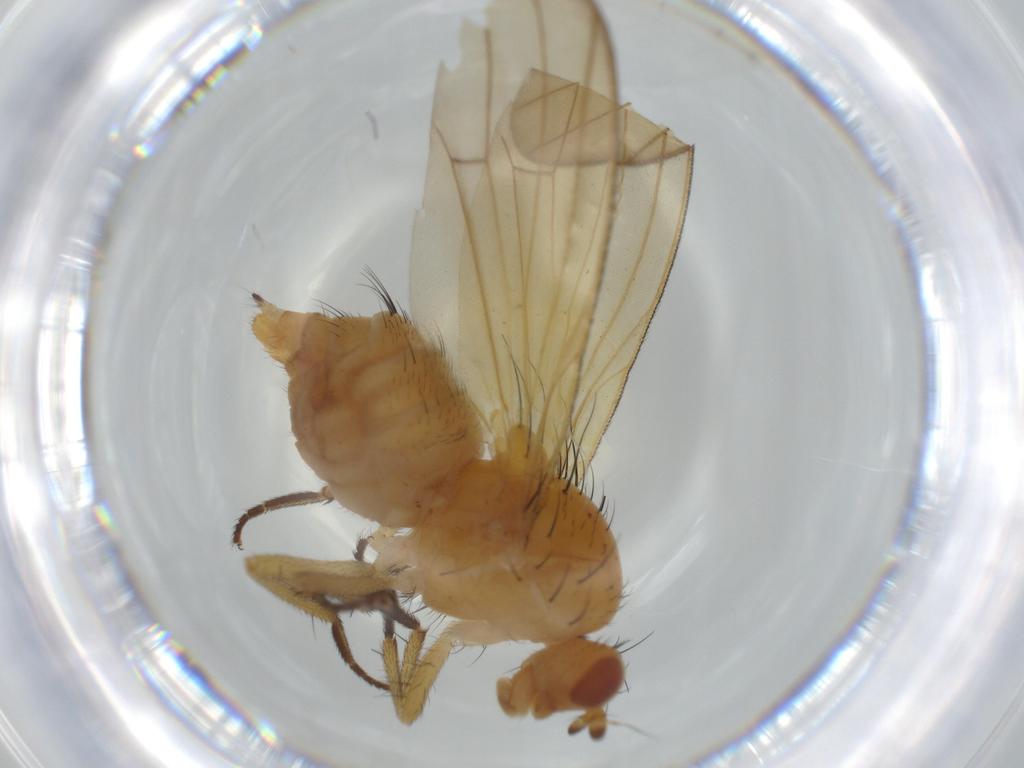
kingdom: Animalia
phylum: Arthropoda
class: Insecta
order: Diptera
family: Lauxaniidae
